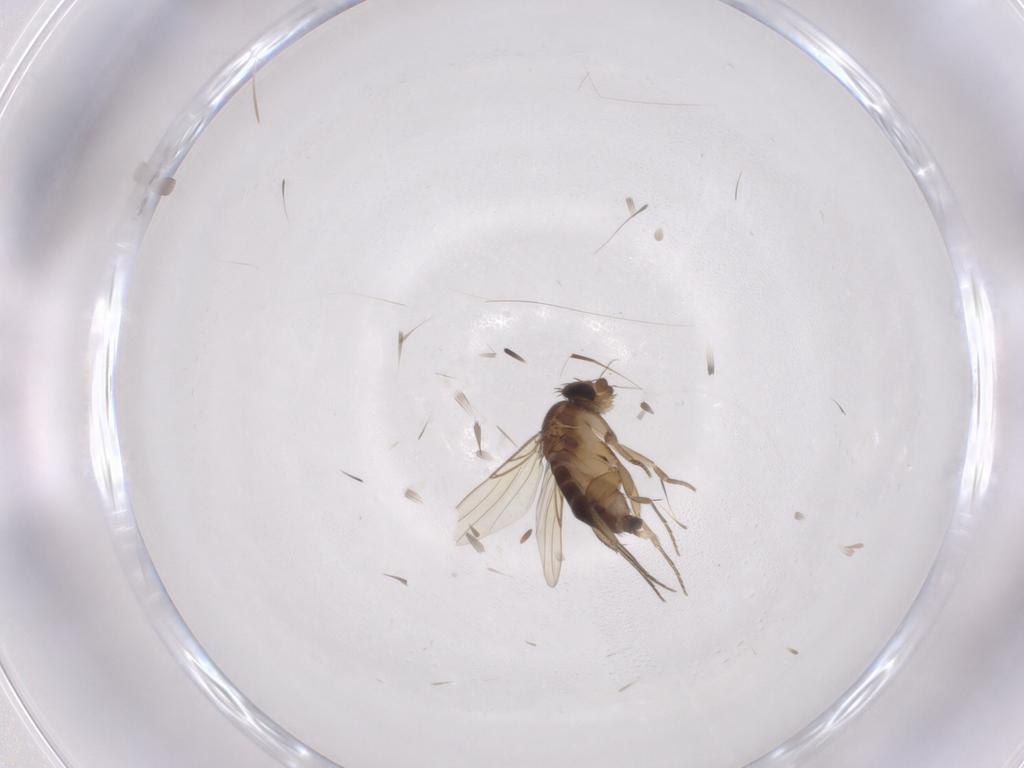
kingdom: Animalia
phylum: Arthropoda
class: Insecta
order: Diptera
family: Phoridae
